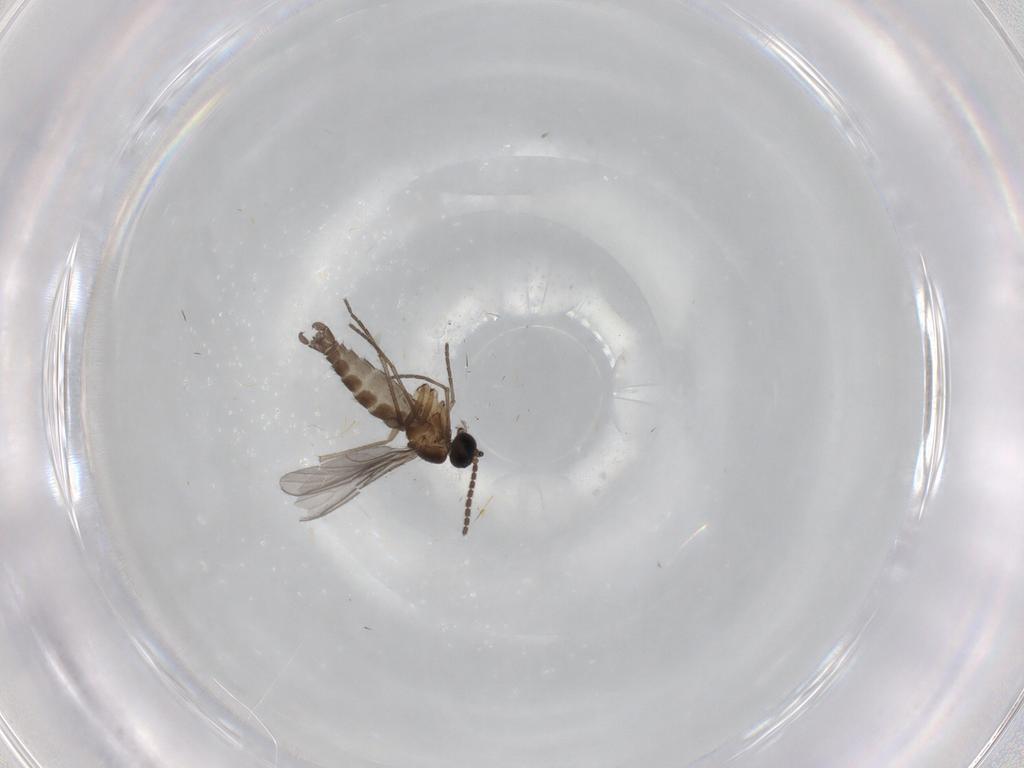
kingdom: Animalia
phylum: Arthropoda
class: Insecta
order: Diptera
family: Sciaridae
